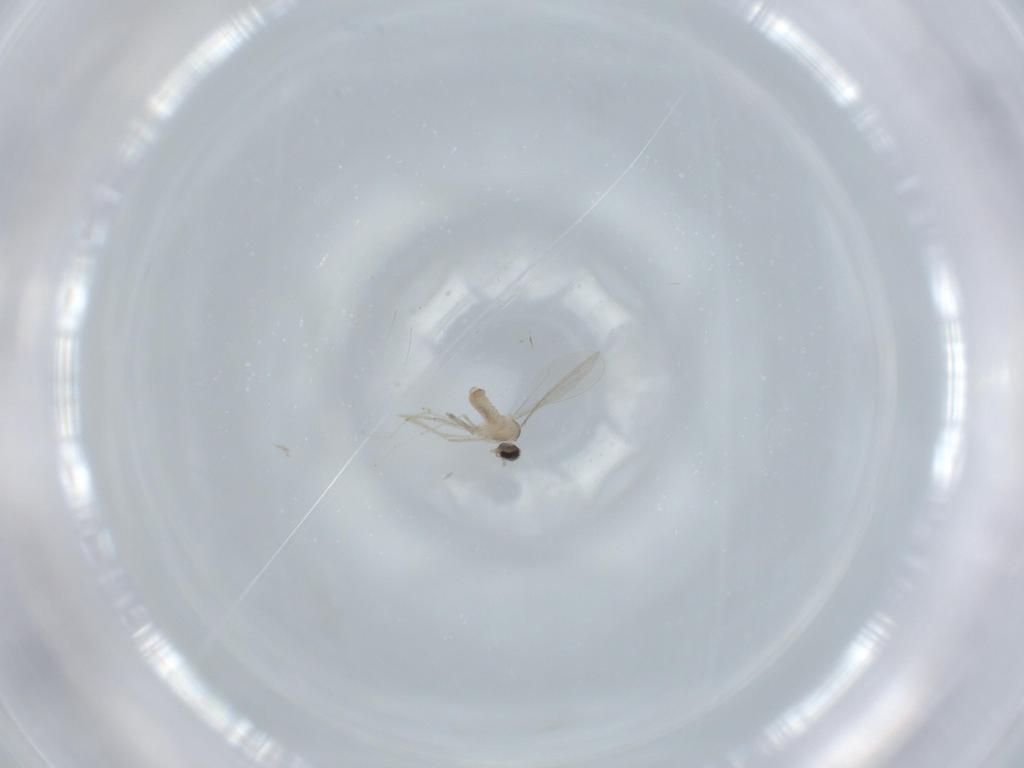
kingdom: Animalia
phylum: Arthropoda
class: Insecta
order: Diptera
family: Cecidomyiidae
